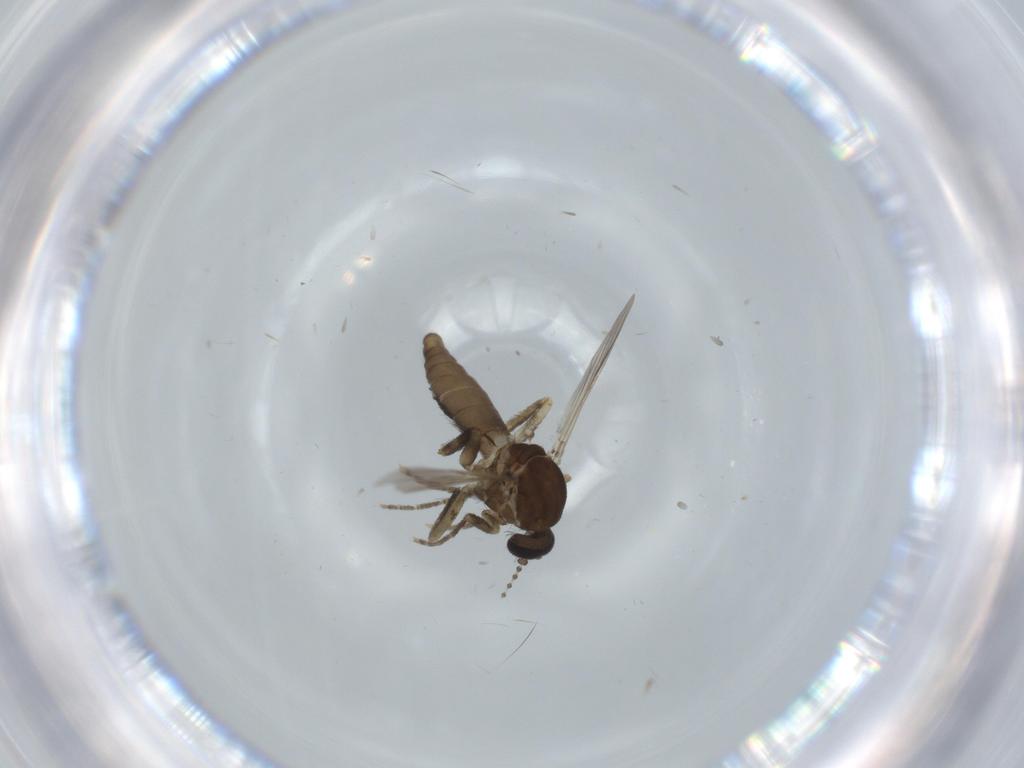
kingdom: Animalia
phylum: Arthropoda
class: Insecta
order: Diptera
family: Ceratopogonidae
